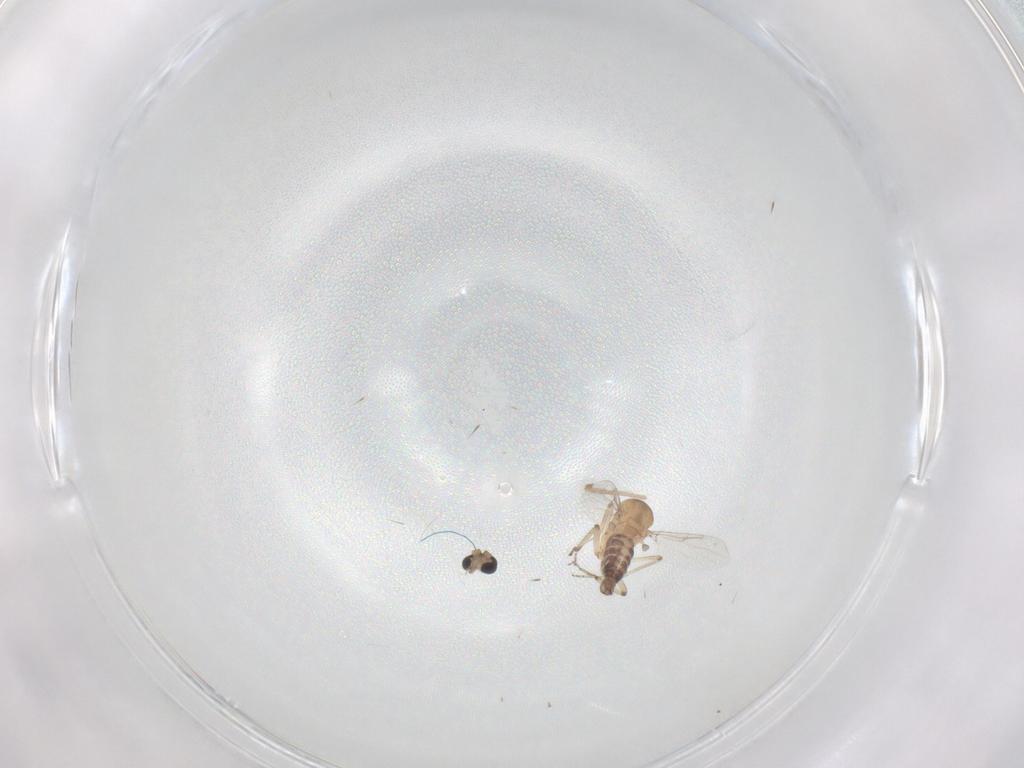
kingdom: Animalia
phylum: Arthropoda
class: Insecta
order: Diptera
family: Ceratopogonidae
